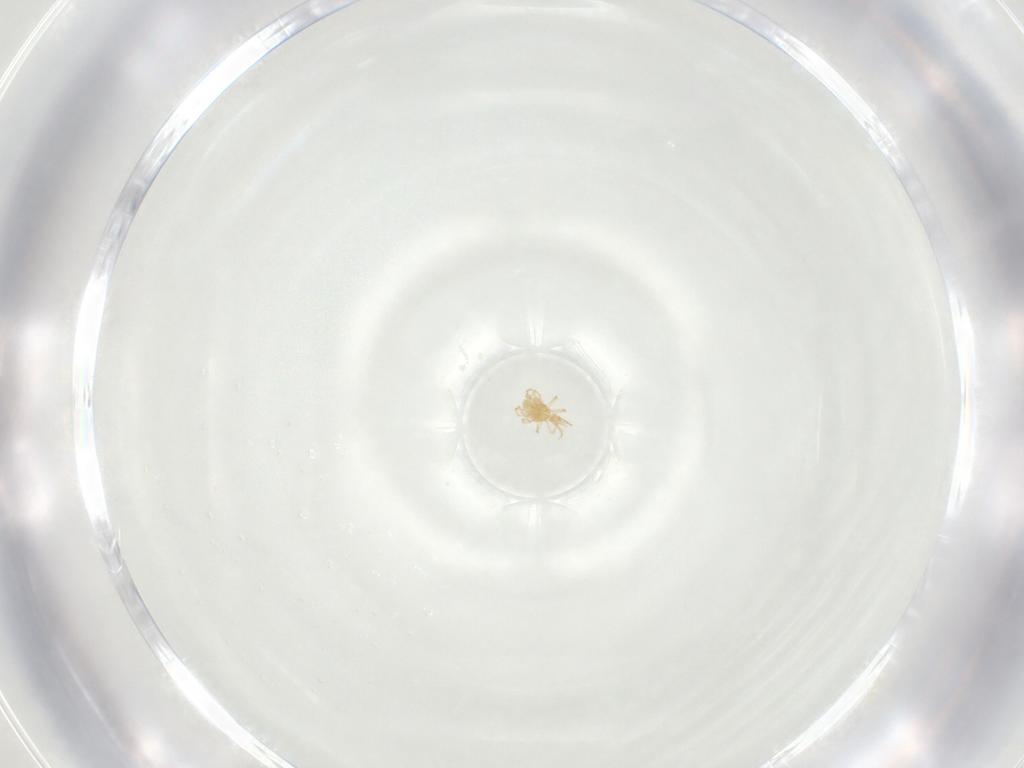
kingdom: Animalia
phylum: Arthropoda
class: Arachnida
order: Trombidiformes
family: Cunaxidae
